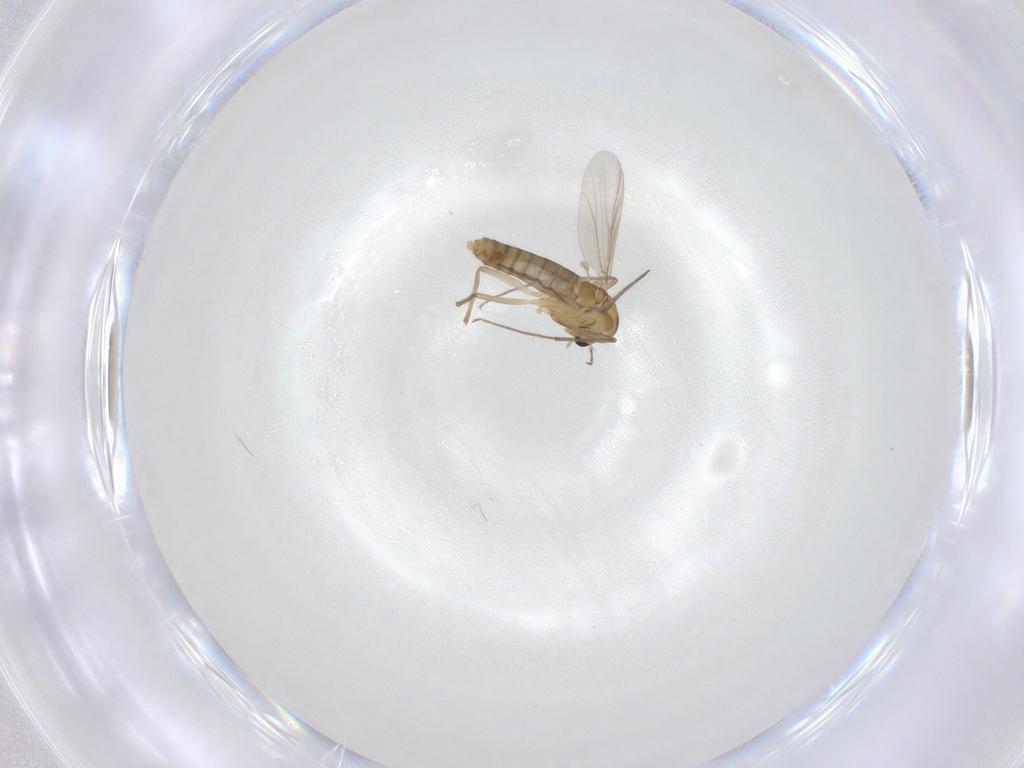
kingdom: Animalia
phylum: Arthropoda
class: Insecta
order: Diptera
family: Chironomidae
